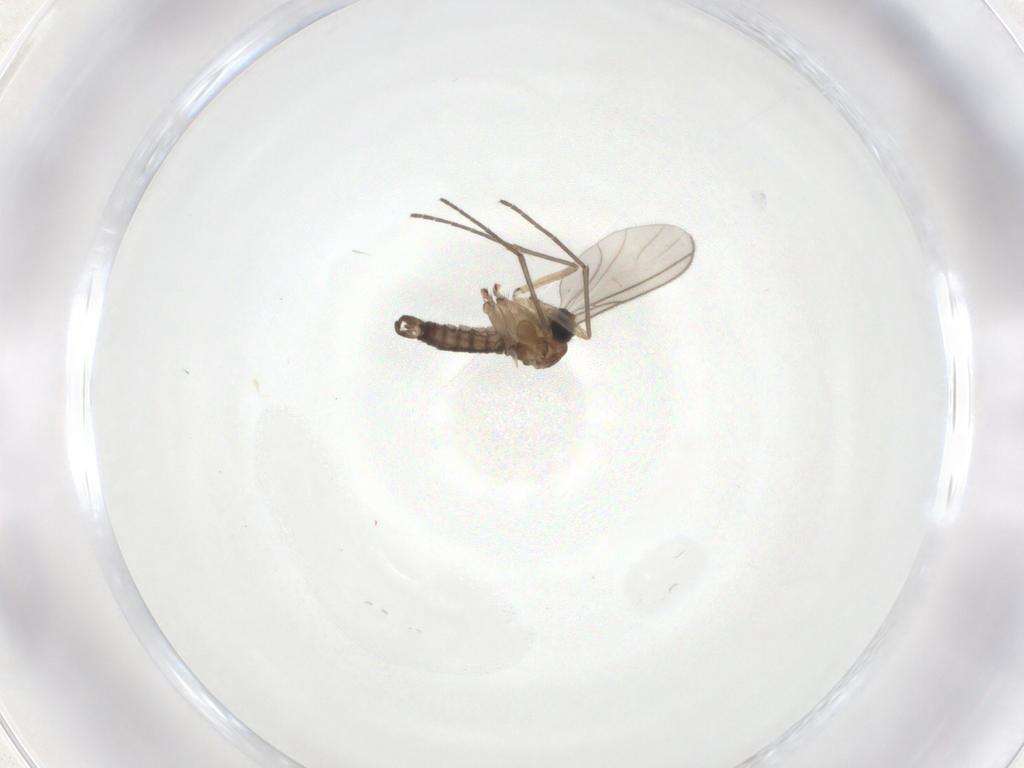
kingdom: Animalia
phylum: Arthropoda
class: Insecta
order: Diptera
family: Sciaridae
